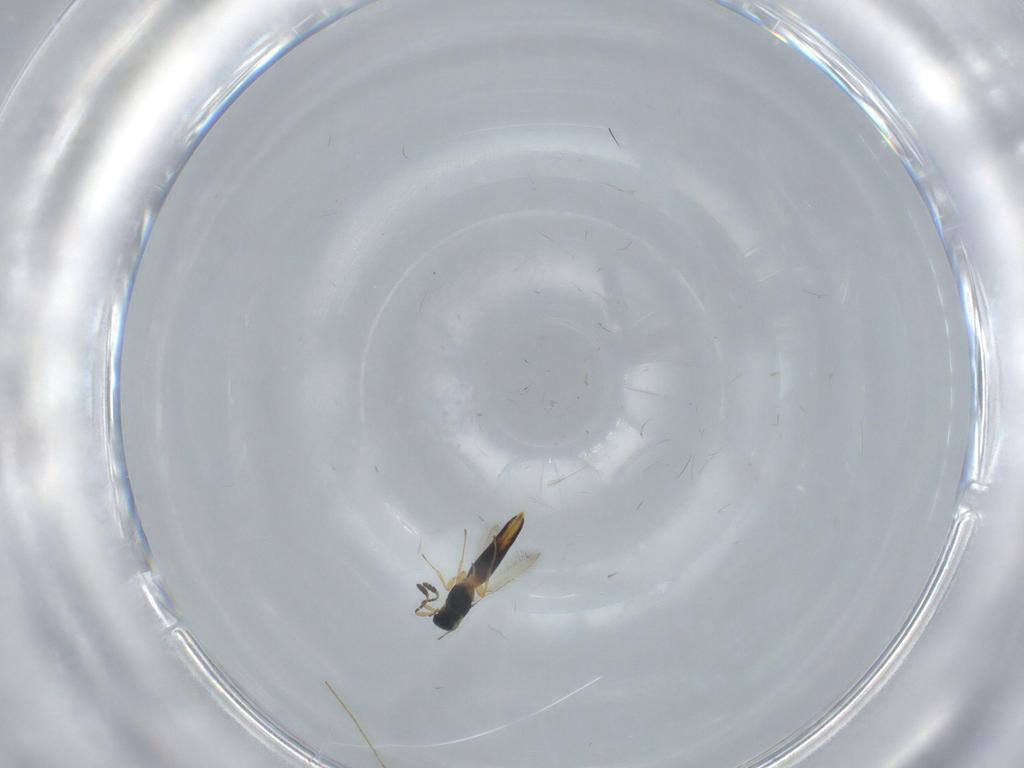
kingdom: Animalia
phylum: Arthropoda
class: Insecta
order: Hymenoptera
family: Scelionidae
